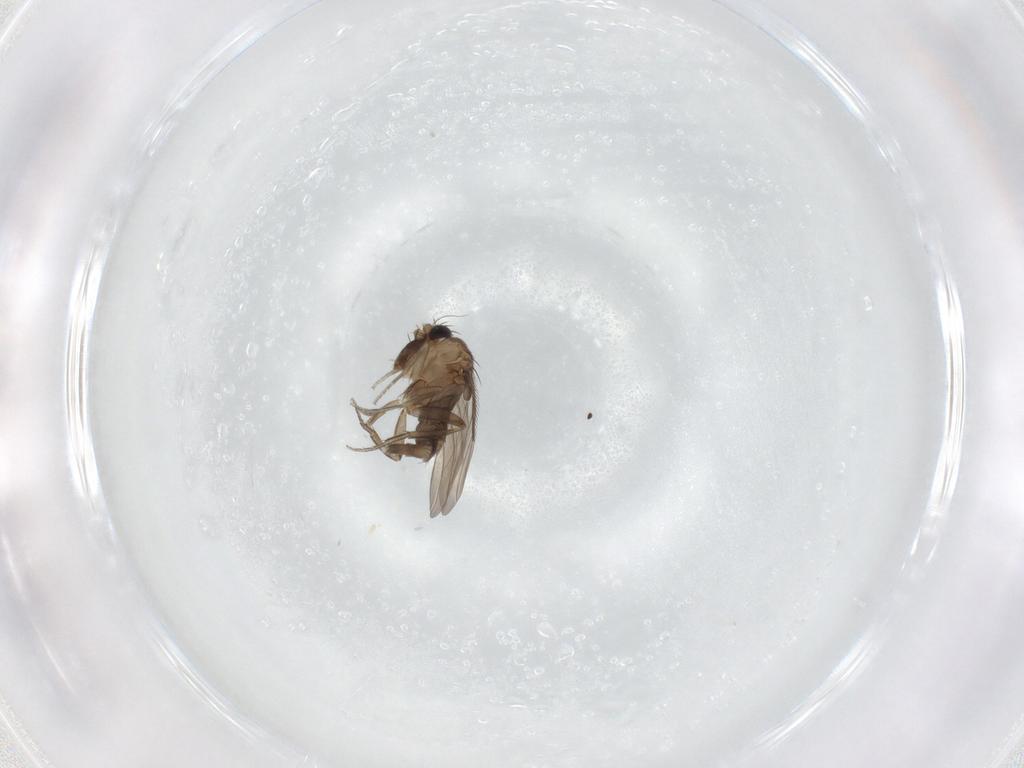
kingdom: Animalia
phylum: Arthropoda
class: Insecta
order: Diptera
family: Phoridae
